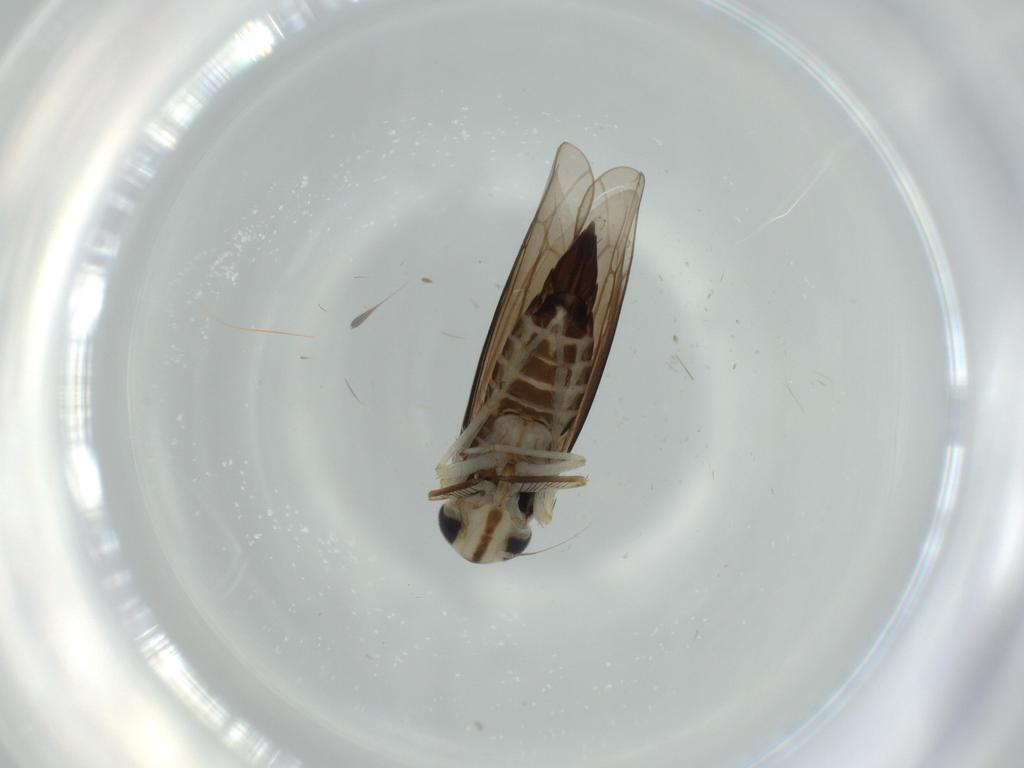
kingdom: Animalia
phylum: Arthropoda
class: Insecta
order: Hemiptera
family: Cicadellidae
